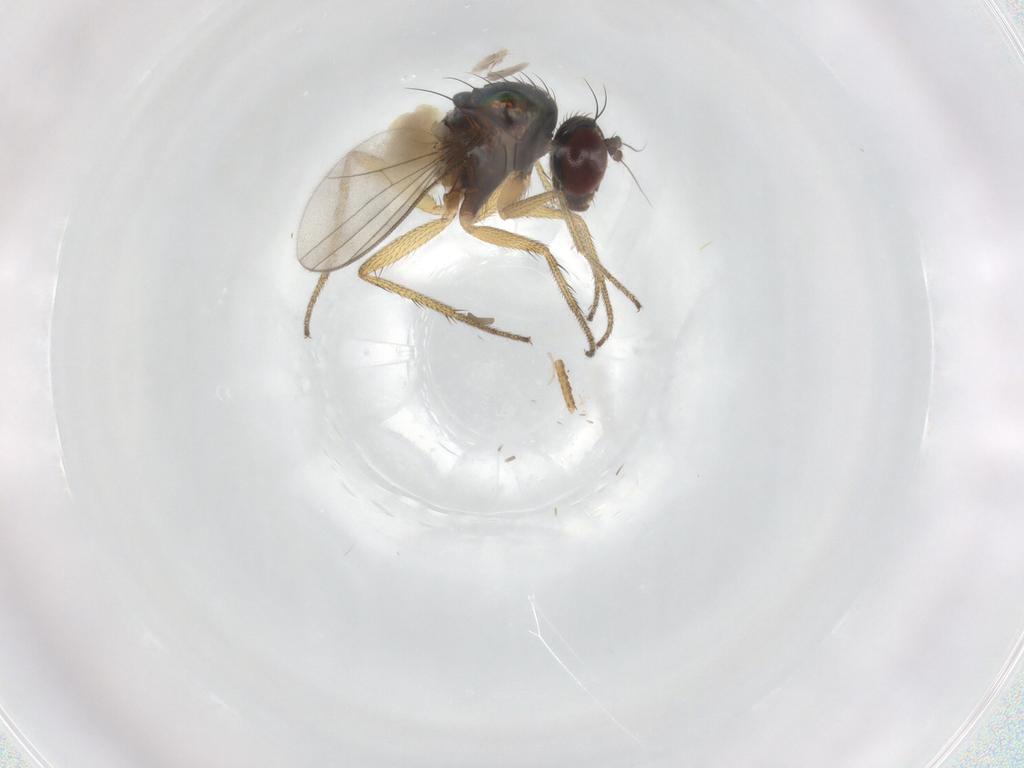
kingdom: Animalia
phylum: Arthropoda
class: Insecta
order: Diptera
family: Dolichopodidae
